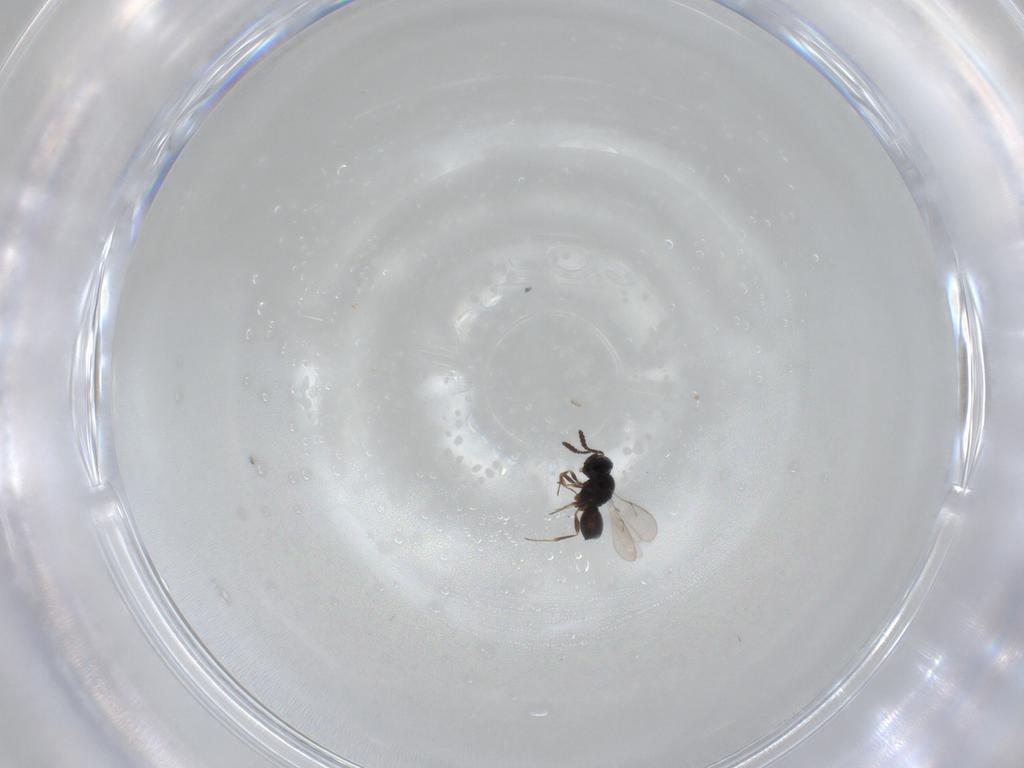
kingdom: Animalia
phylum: Arthropoda
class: Insecta
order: Hymenoptera
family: Scelionidae
